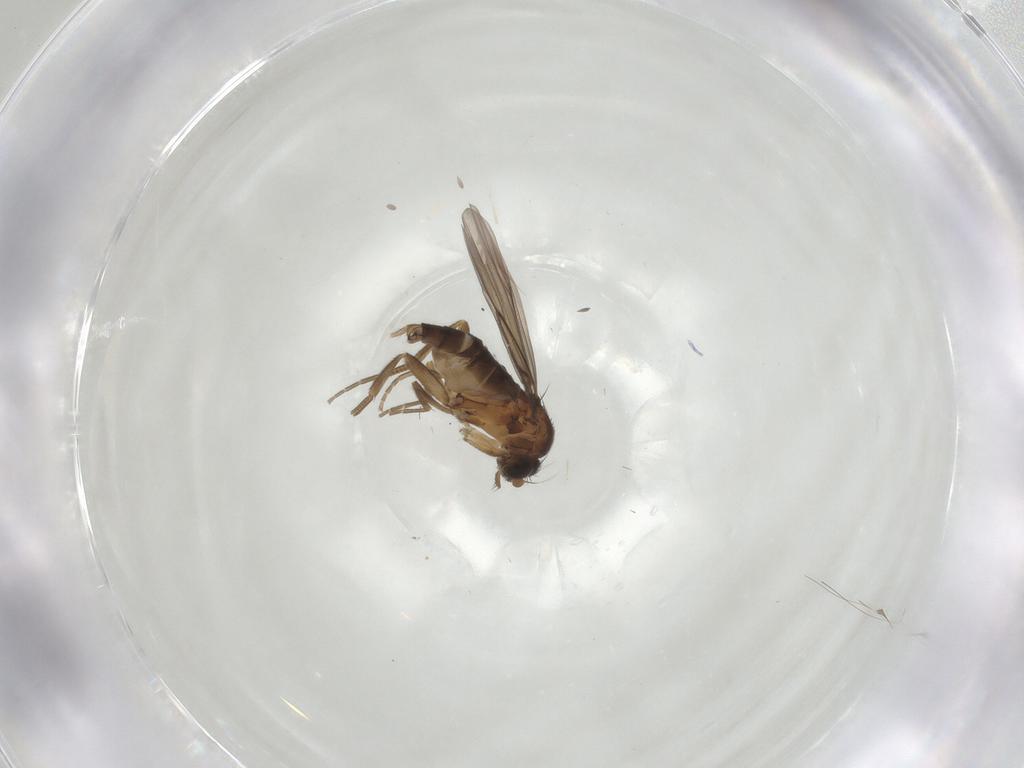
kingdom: Animalia
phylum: Arthropoda
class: Insecta
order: Diptera
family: Phoridae
